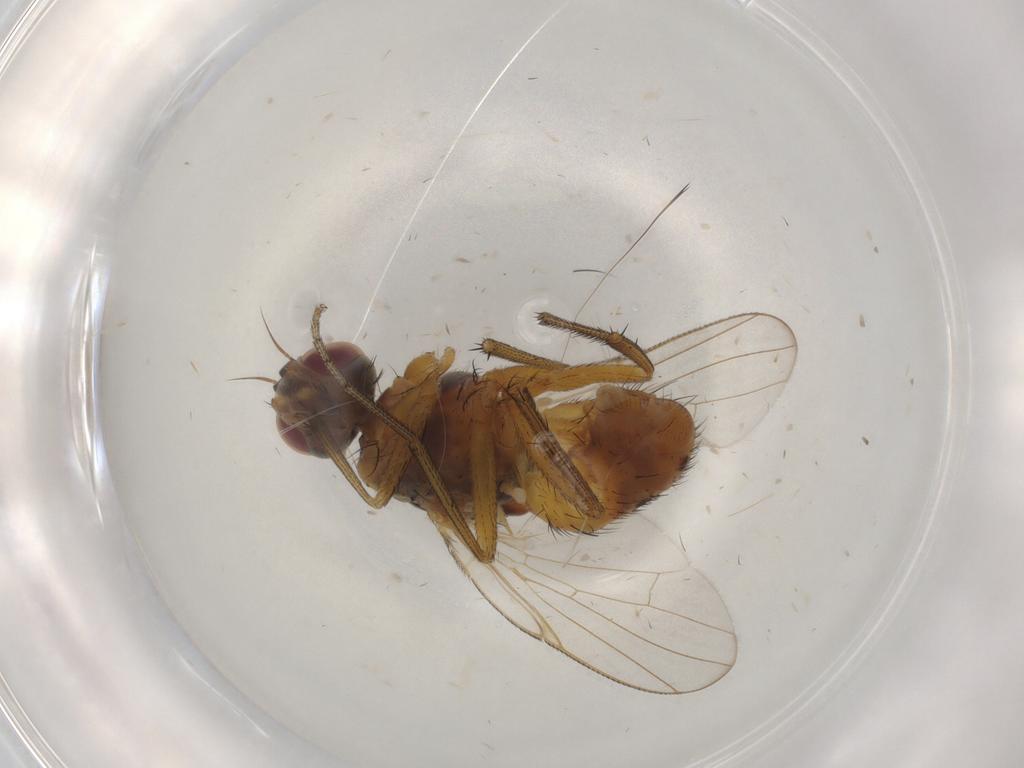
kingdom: Animalia
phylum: Arthropoda
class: Insecta
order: Diptera
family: Muscidae
